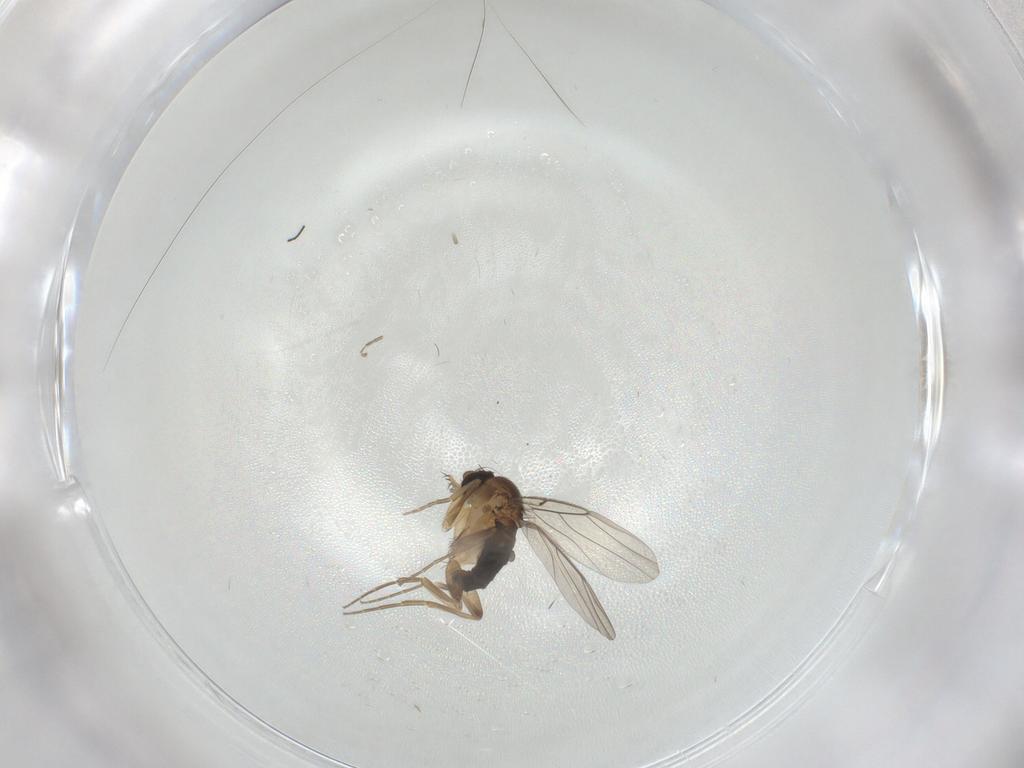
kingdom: Animalia
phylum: Arthropoda
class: Insecta
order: Diptera
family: Phoridae
